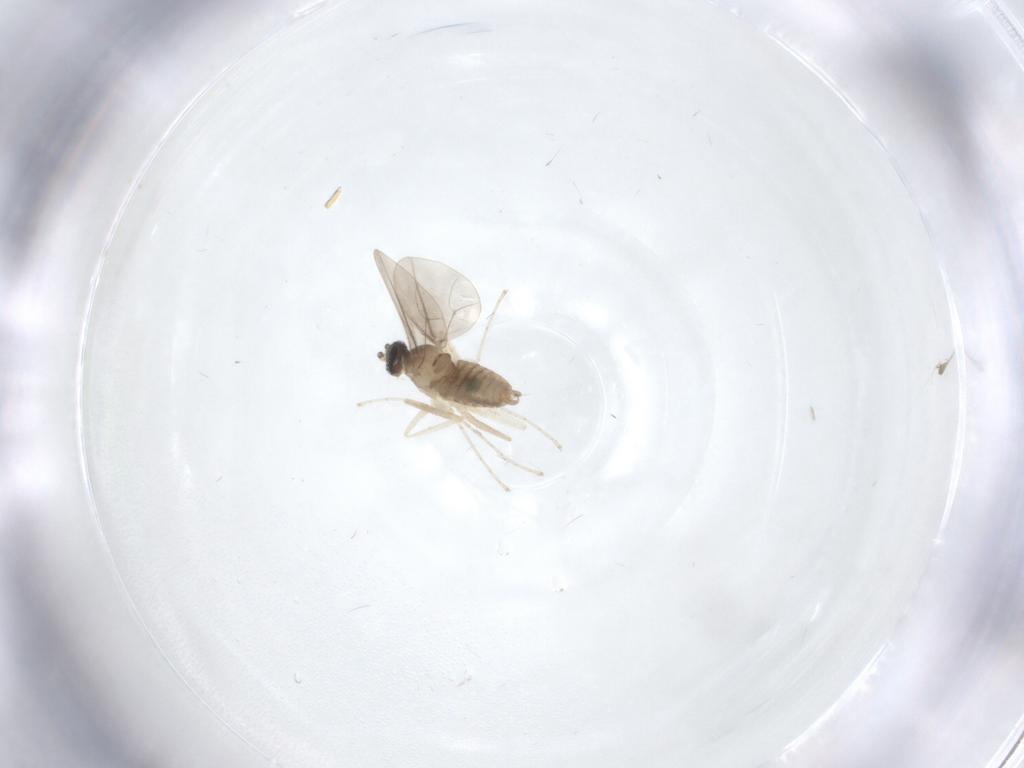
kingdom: Animalia
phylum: Arthropoda
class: Insecta
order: Diptera
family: Cecidomyiidae
